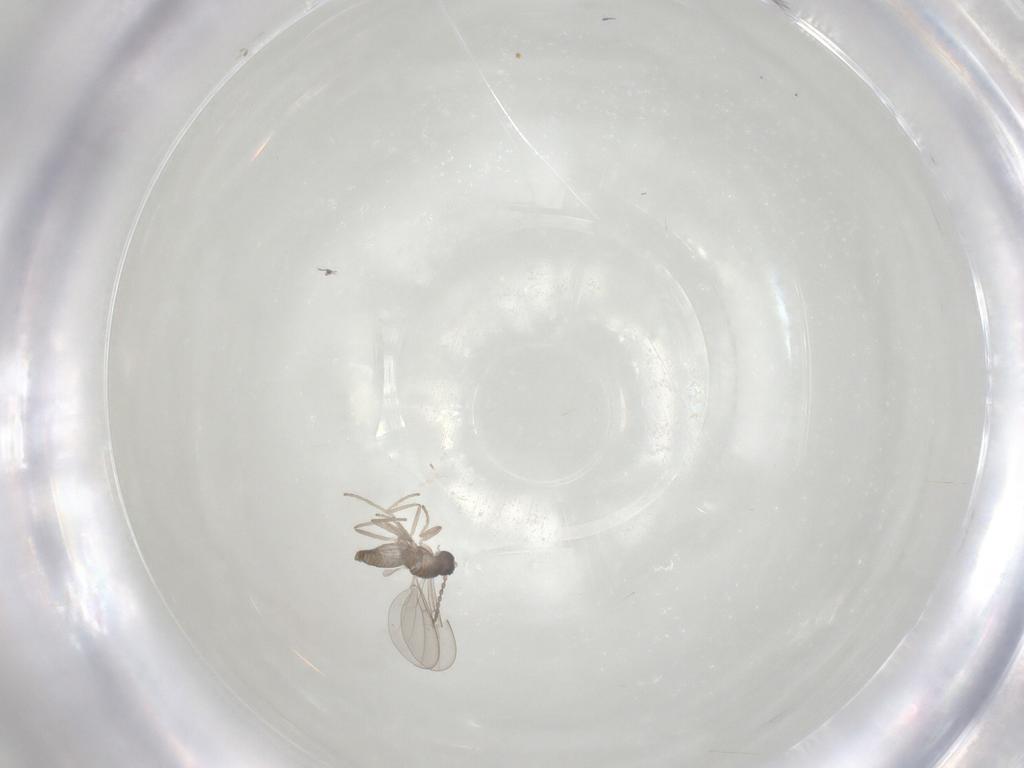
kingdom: Animalia
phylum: Arthropoda
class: Insecta
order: Diptera
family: Cecidomyiidae
